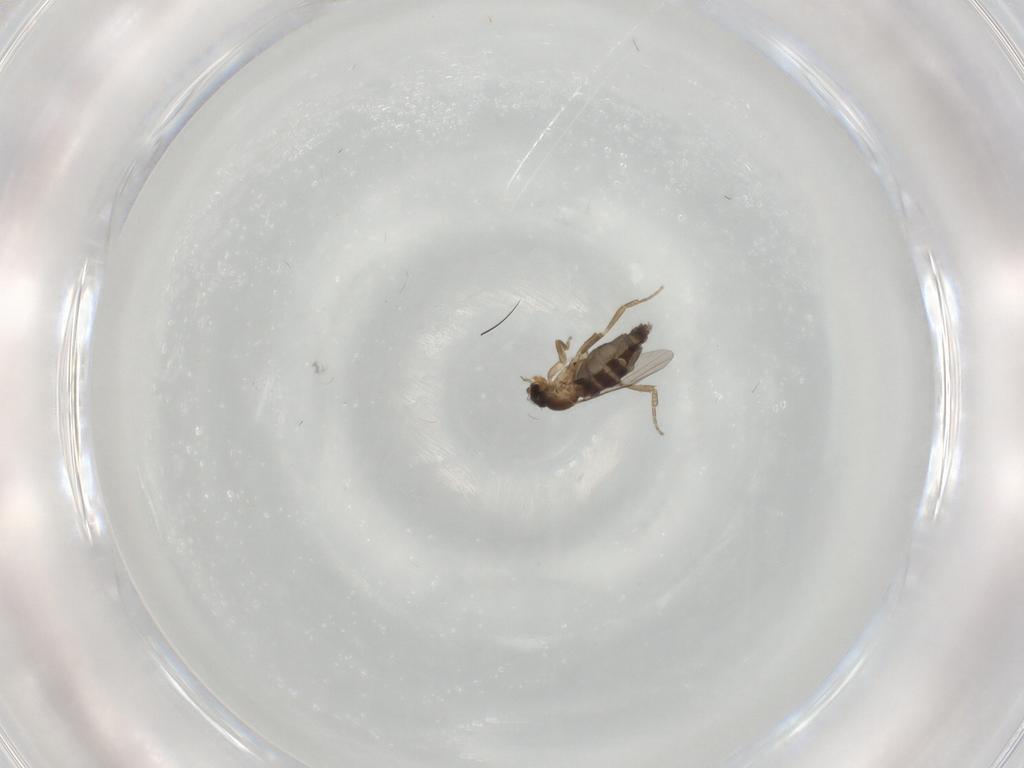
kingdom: Animalia
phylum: Arthropoda
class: Insecta
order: Diptera
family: Phoridae
